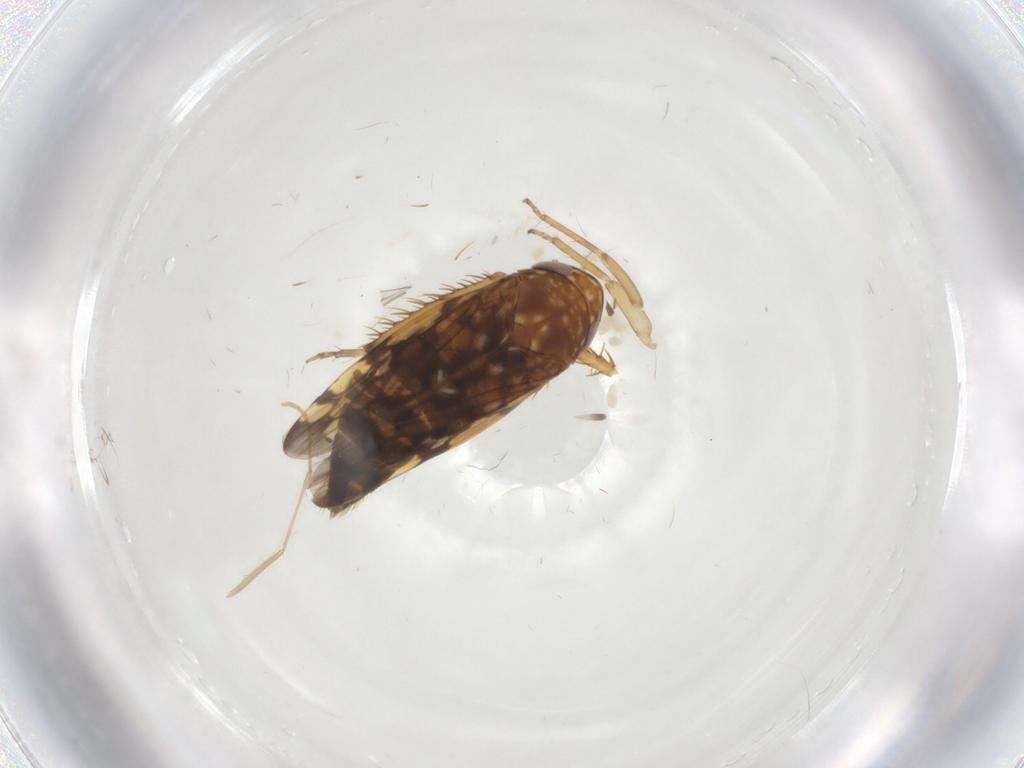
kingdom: Animalia
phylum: Arthropoda
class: Insecta
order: Hemiptera
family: Cicadellidae
